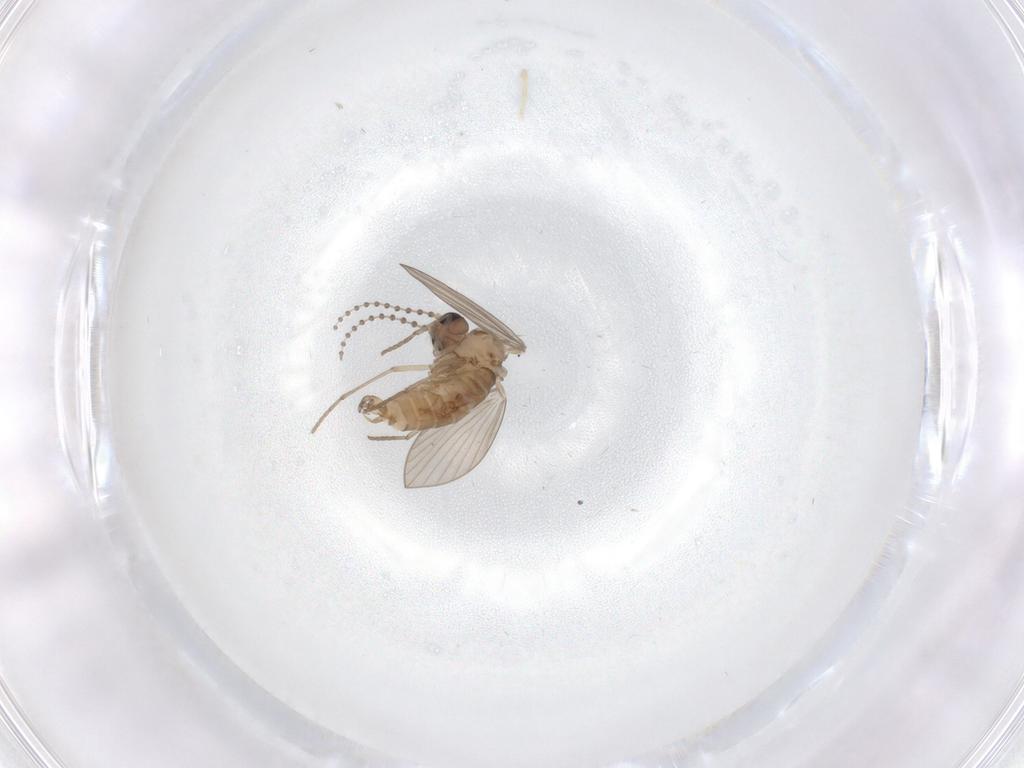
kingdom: Animalia
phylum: Arthropoda
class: Insecta
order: Diptera
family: Psychodidae
